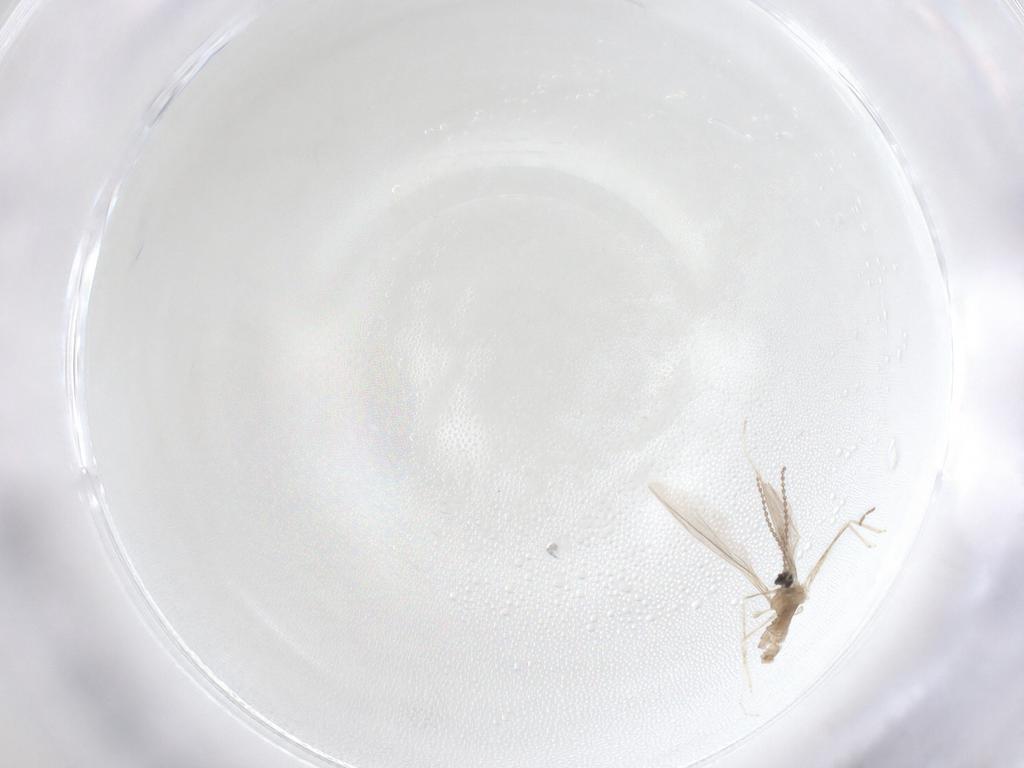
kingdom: Animalia
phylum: Arthropoda
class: Insecta
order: Diptera
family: Cecidomyiidae
